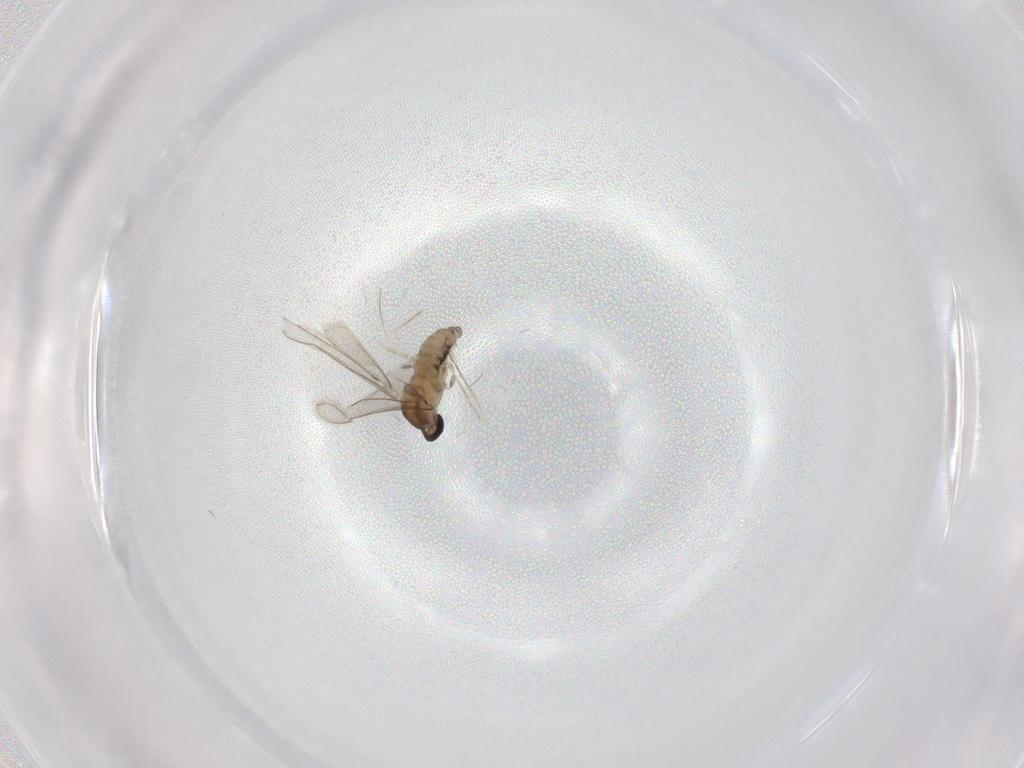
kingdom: Animalia
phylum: Arthropoda
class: Insecta
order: Diptera
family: Cecidomyiidae
